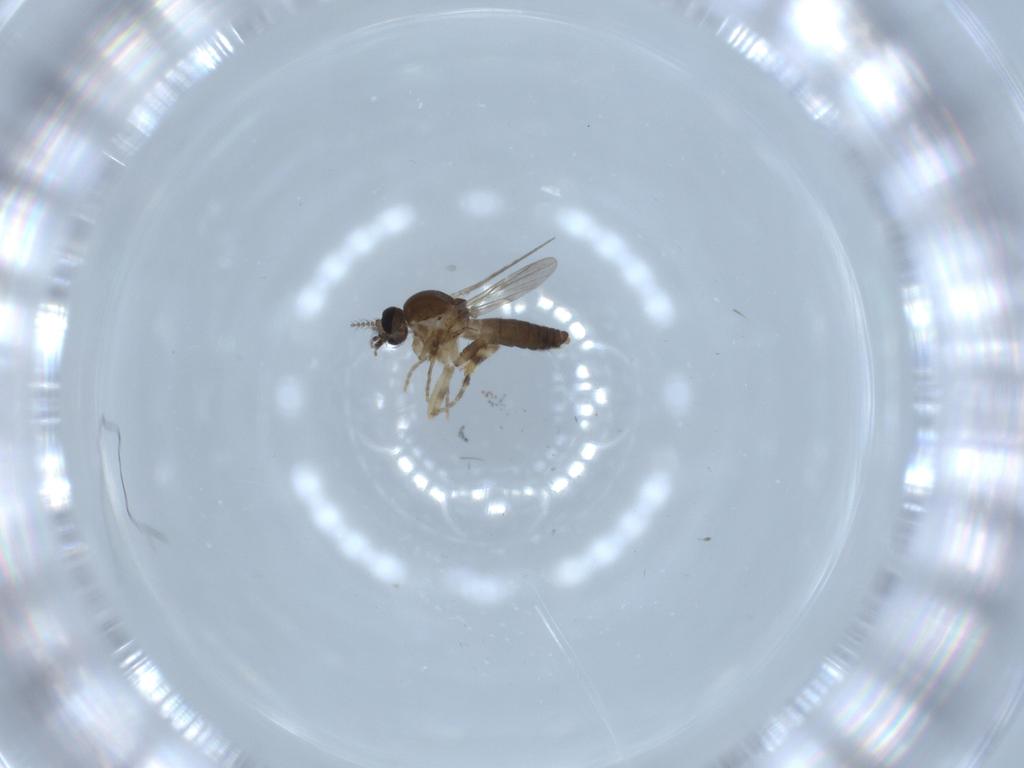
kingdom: Animalia
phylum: Arthropoda
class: Insecta
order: Diptera
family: Ceratopogonidae
